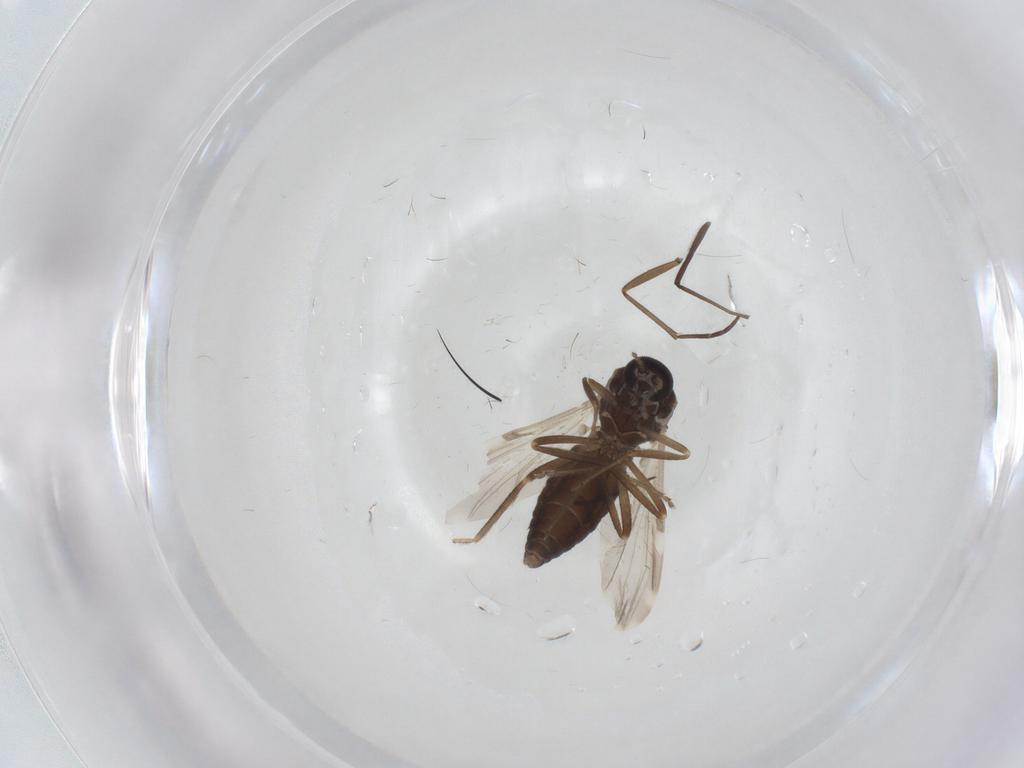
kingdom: Animalia
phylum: Arthropoda
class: Insecta
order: Diptera
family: Ceratopogonidae
